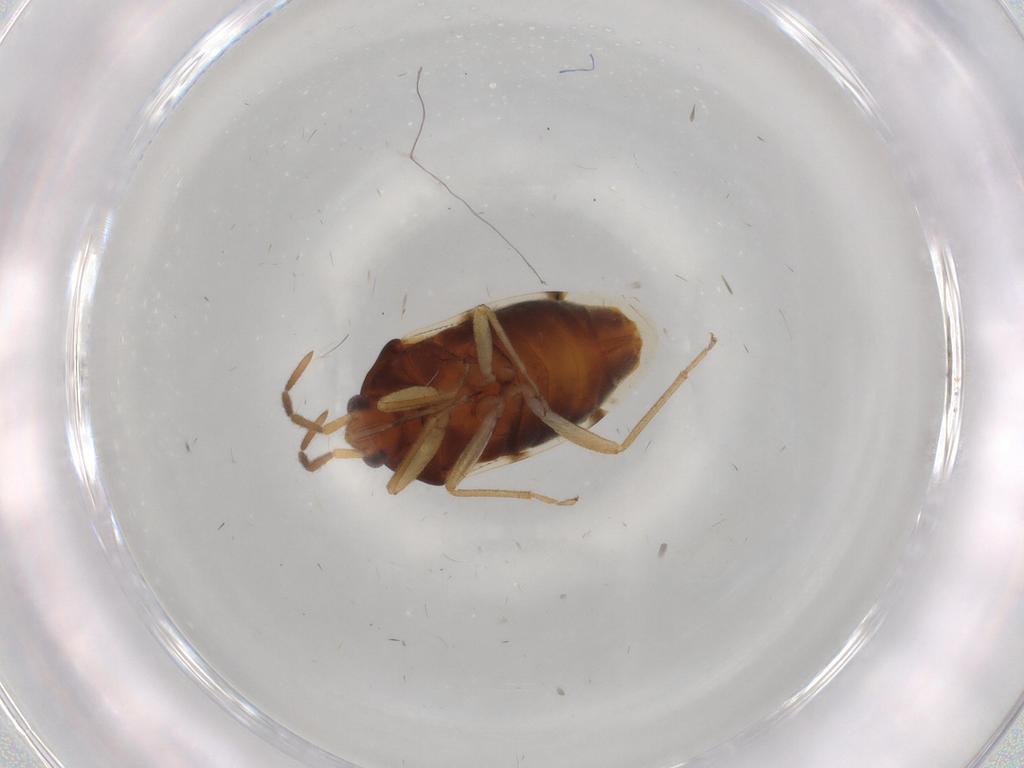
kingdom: Animalia
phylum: Arthropoda
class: Insecta
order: Hemiptera
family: Rhyparochromidae
